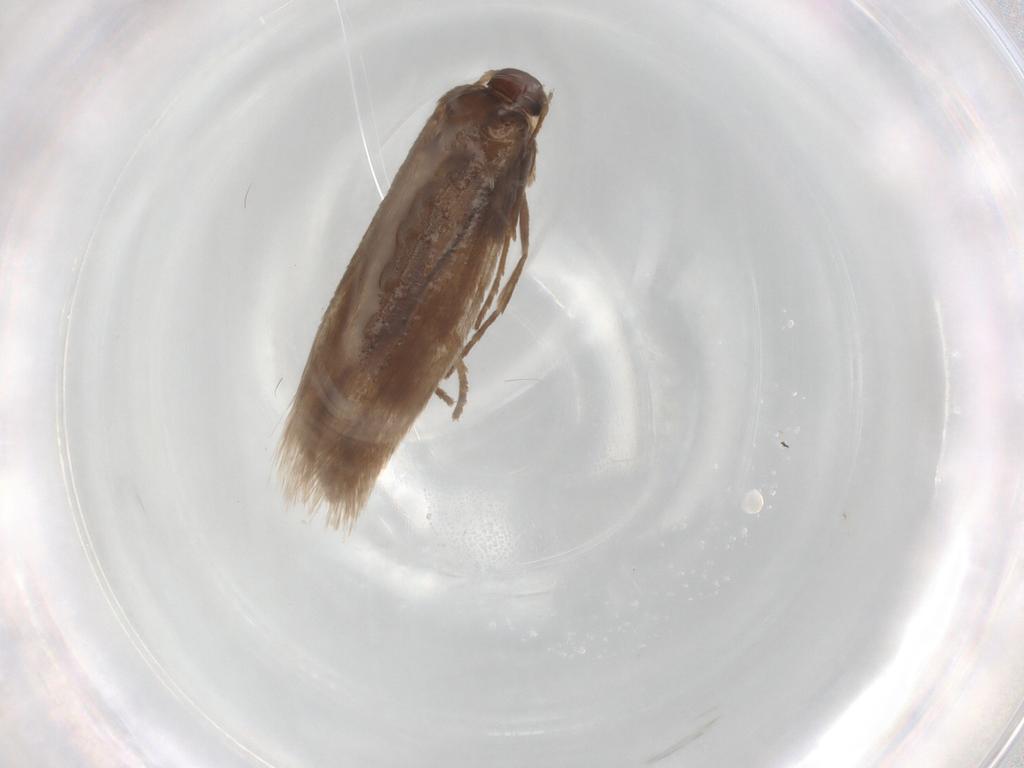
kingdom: Animalia
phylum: Arthropoda
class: Insecta
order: Lepidoptera
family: Limacodidae
